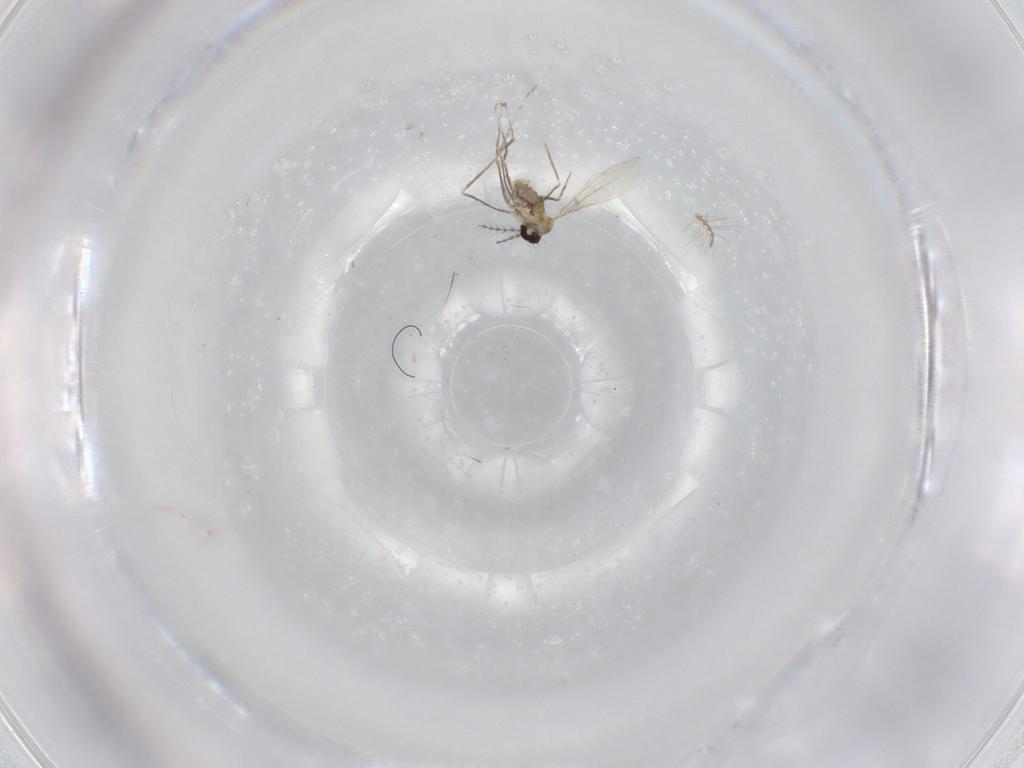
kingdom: Animalia
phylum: Arthropoda
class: Insecta
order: Diptera
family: Cecidomyiidae
